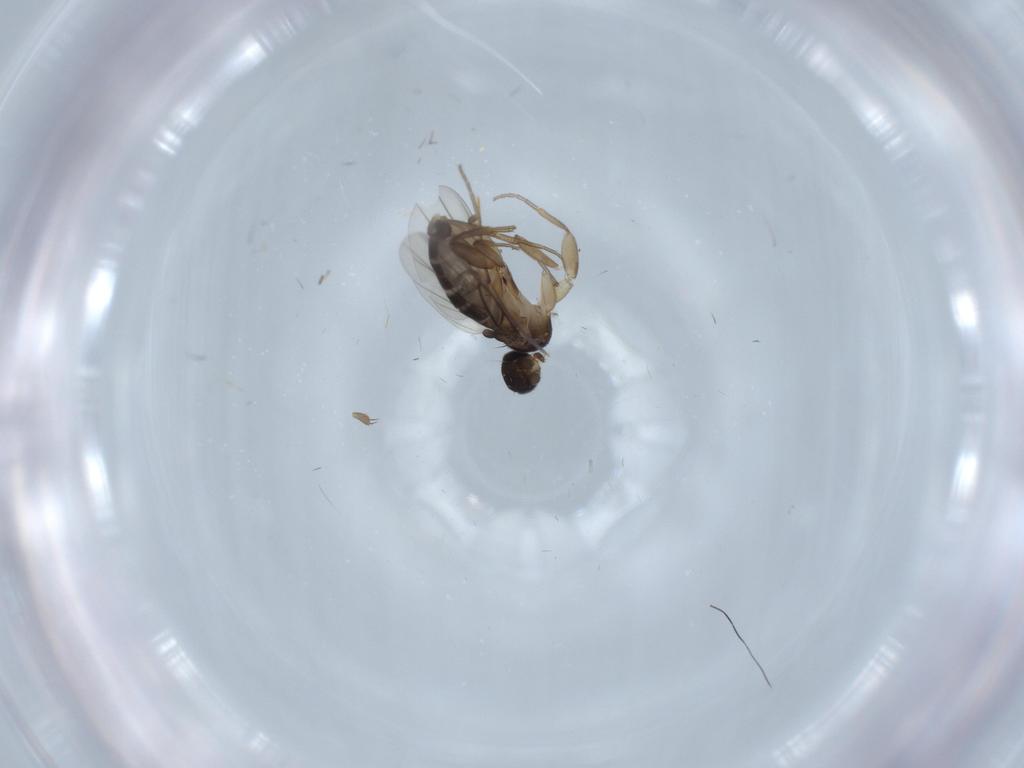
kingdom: Animalia
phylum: Arthropoda
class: Insecta
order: Diptera
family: Phoridae
